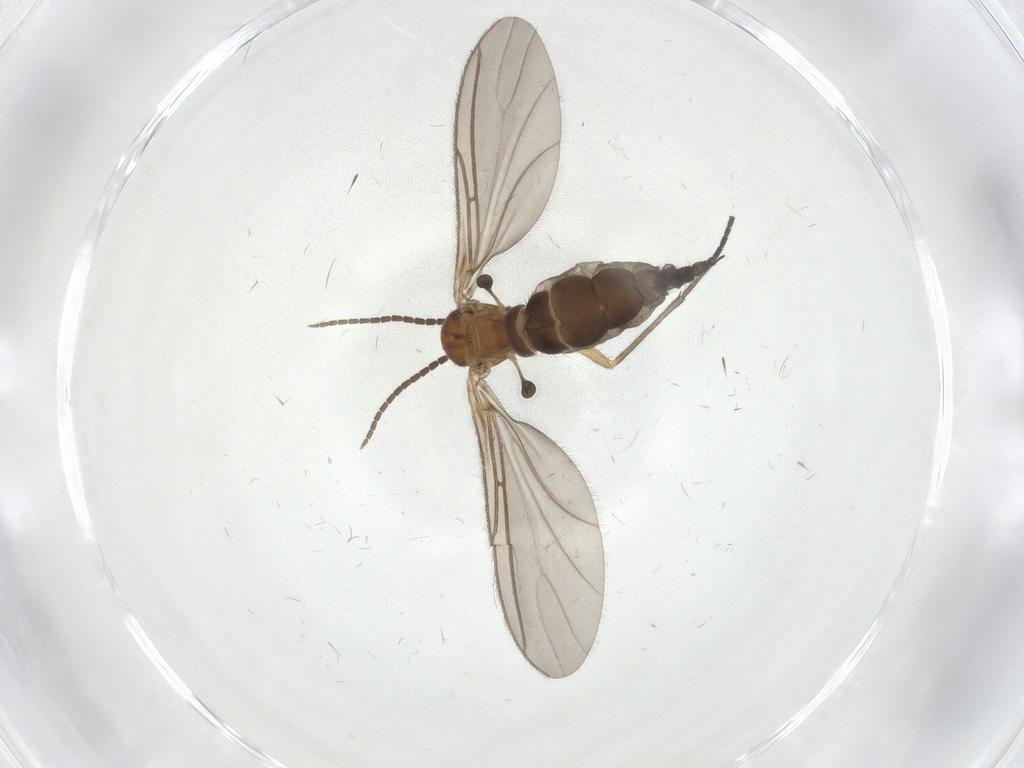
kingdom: Animalia
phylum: Arthropoda
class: Insecta
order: Diptera
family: Sciaridae
